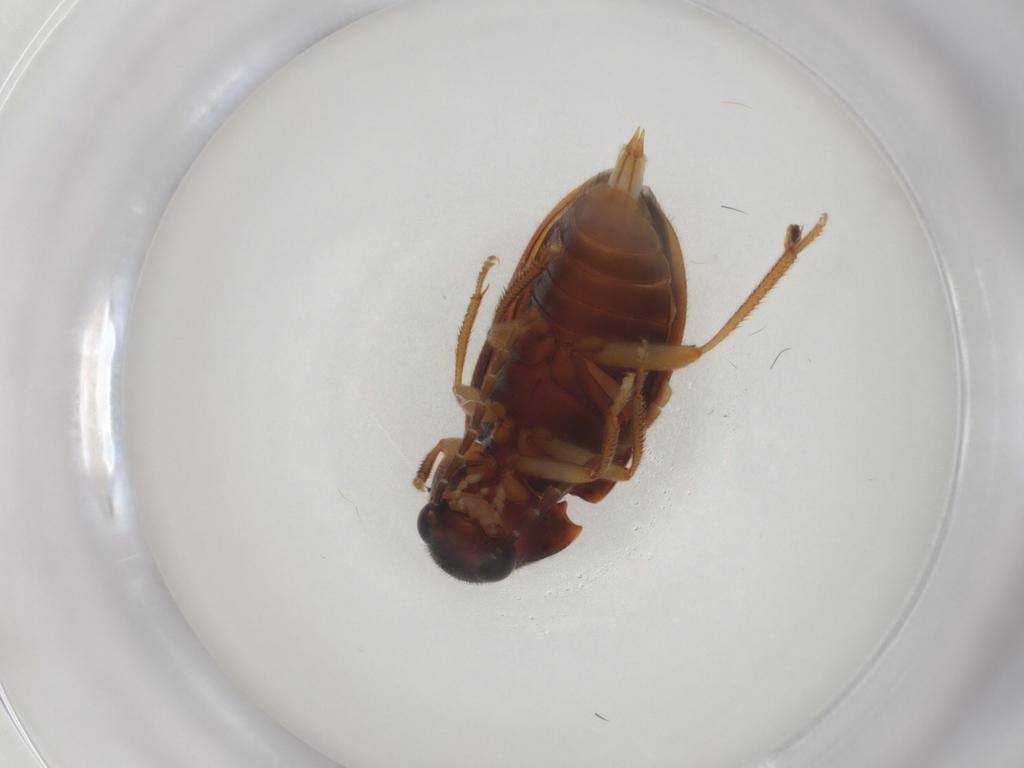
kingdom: Animalia
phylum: Arthropoda
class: Insecta
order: Coleoptera
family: Ptilodactylidae
